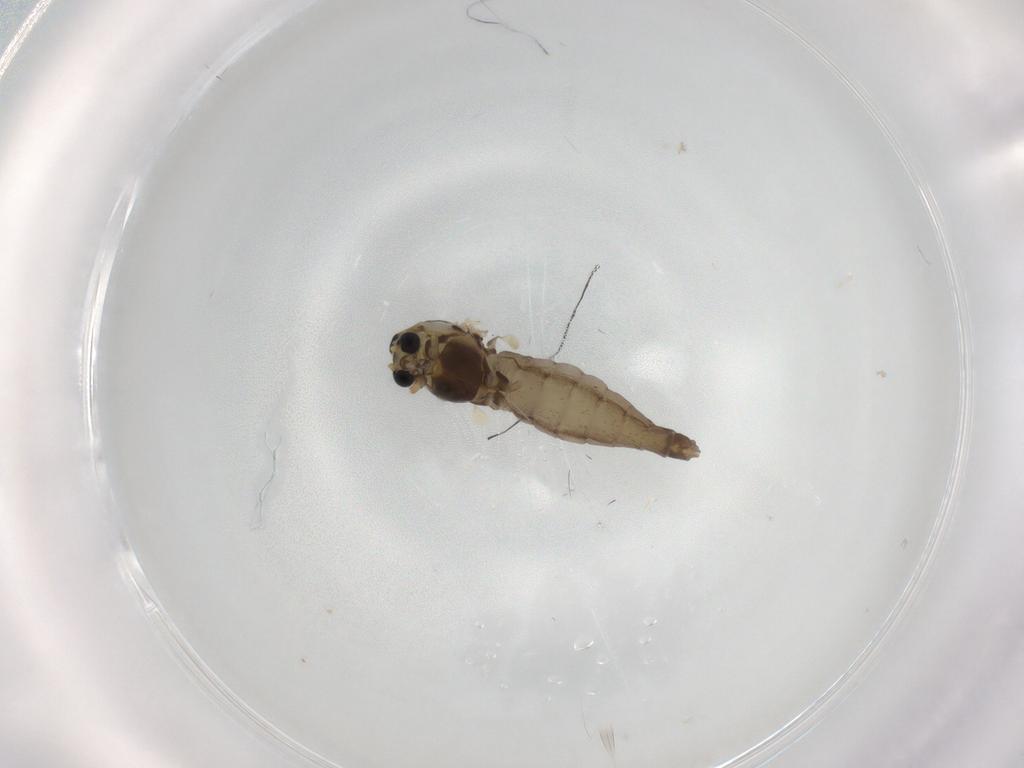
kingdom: Animalia
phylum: Arthropoda
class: Insecta
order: Diptera
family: Chironomidae
